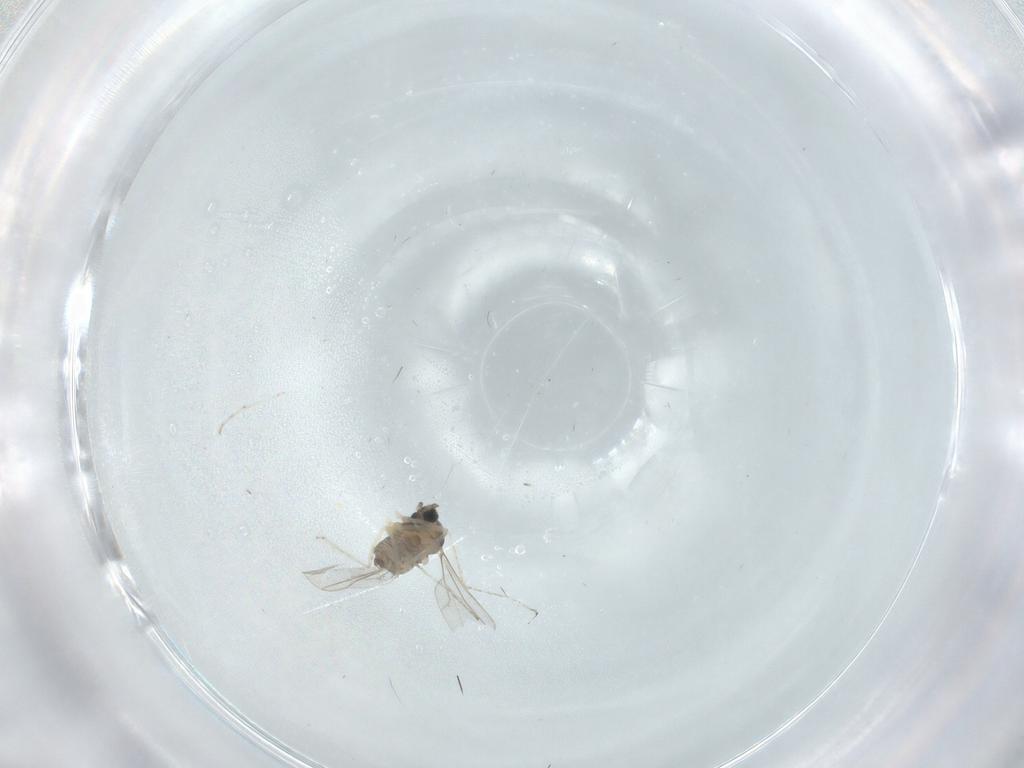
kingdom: Animalia
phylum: Arthropoda
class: Insecta
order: Diptera
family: Cecidomyiidae
